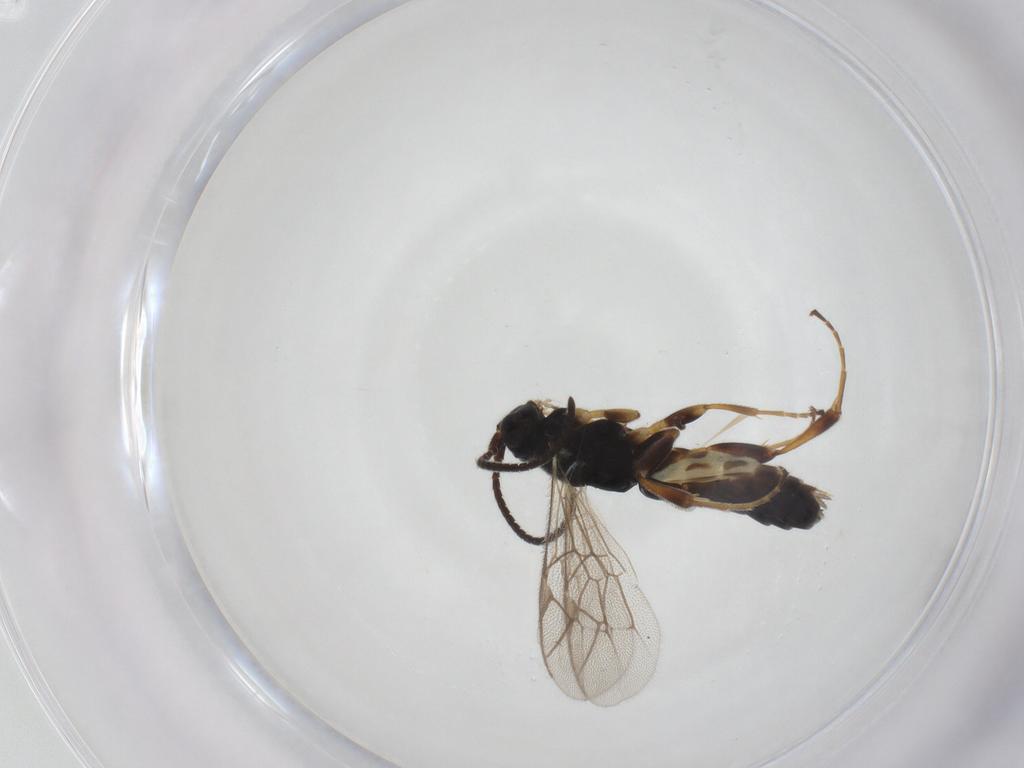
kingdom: Animalia
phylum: Arthropoda
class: Insecta
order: Hymenoptera
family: Ichneumonidae
